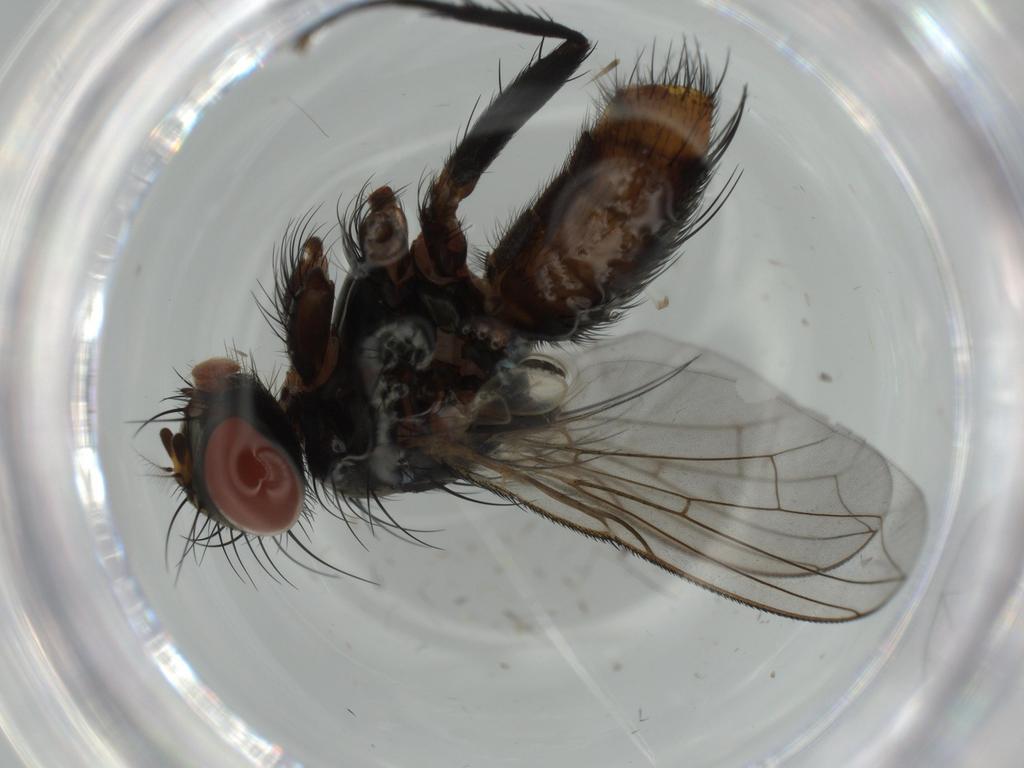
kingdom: Animalia
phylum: Arthropoda
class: Insecta
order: Diptera
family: Sarcophagidae
